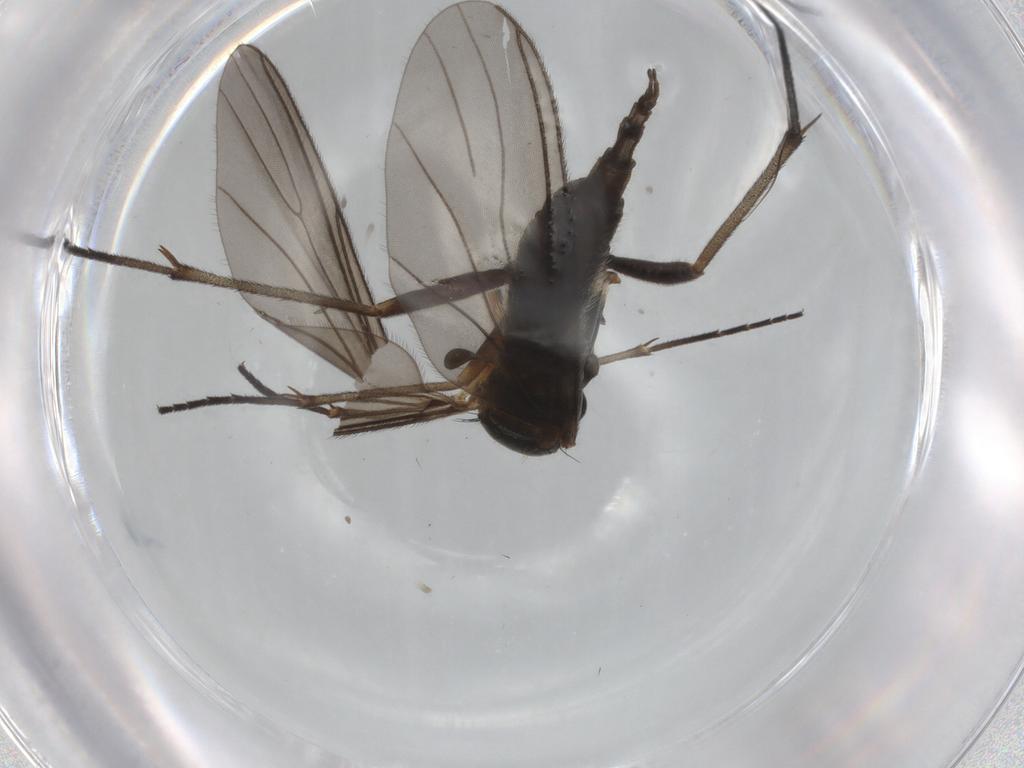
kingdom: Animalia
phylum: Arthropoda
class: Insecta
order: Diptera
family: Sciaridae
